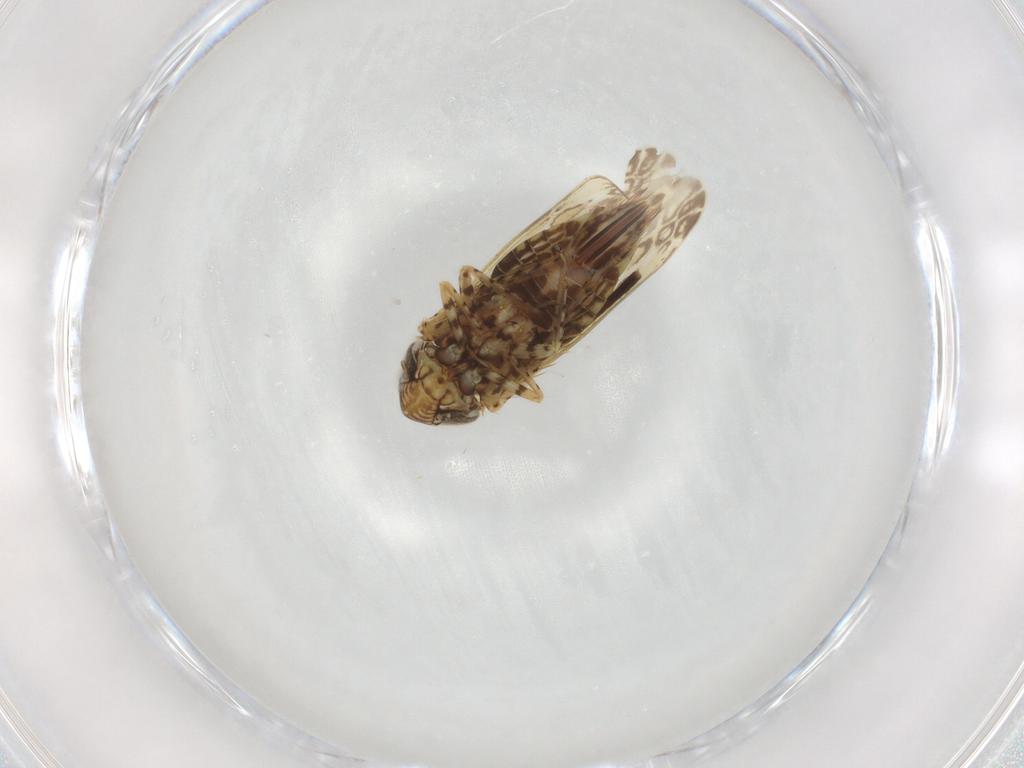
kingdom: Animalia
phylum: Arthropoda
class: Insecta
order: Hemiptera
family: Cicadellidae
